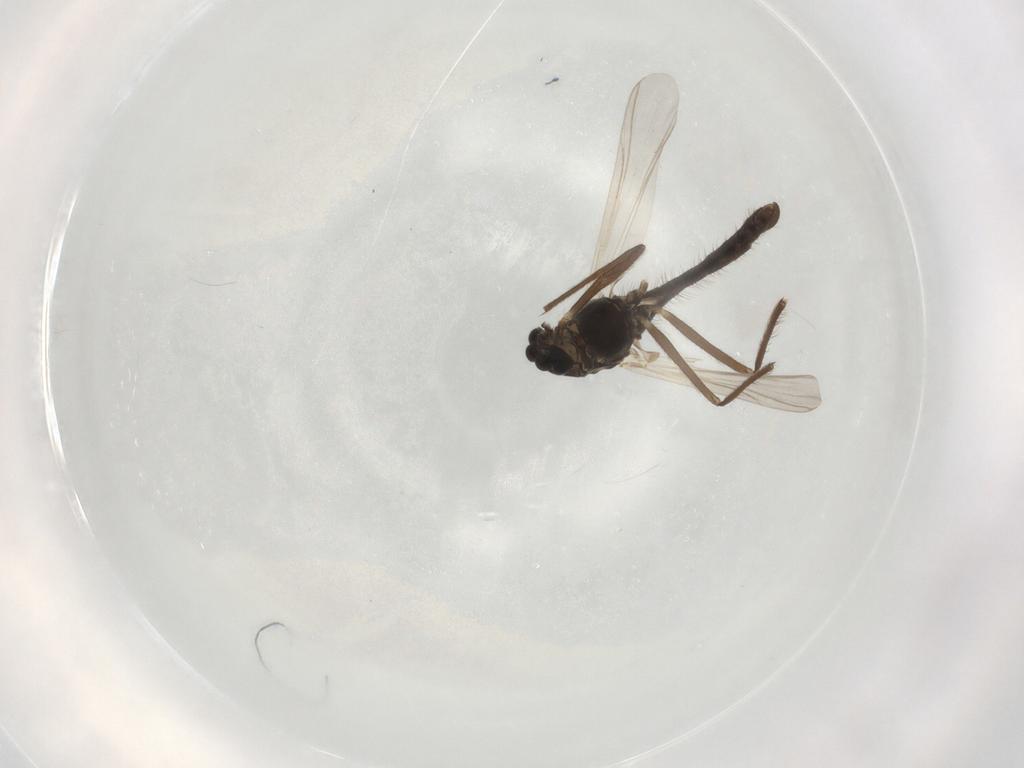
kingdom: Animalia
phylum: Arthropoda
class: Insecta
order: Diptera
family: Chironomidae
